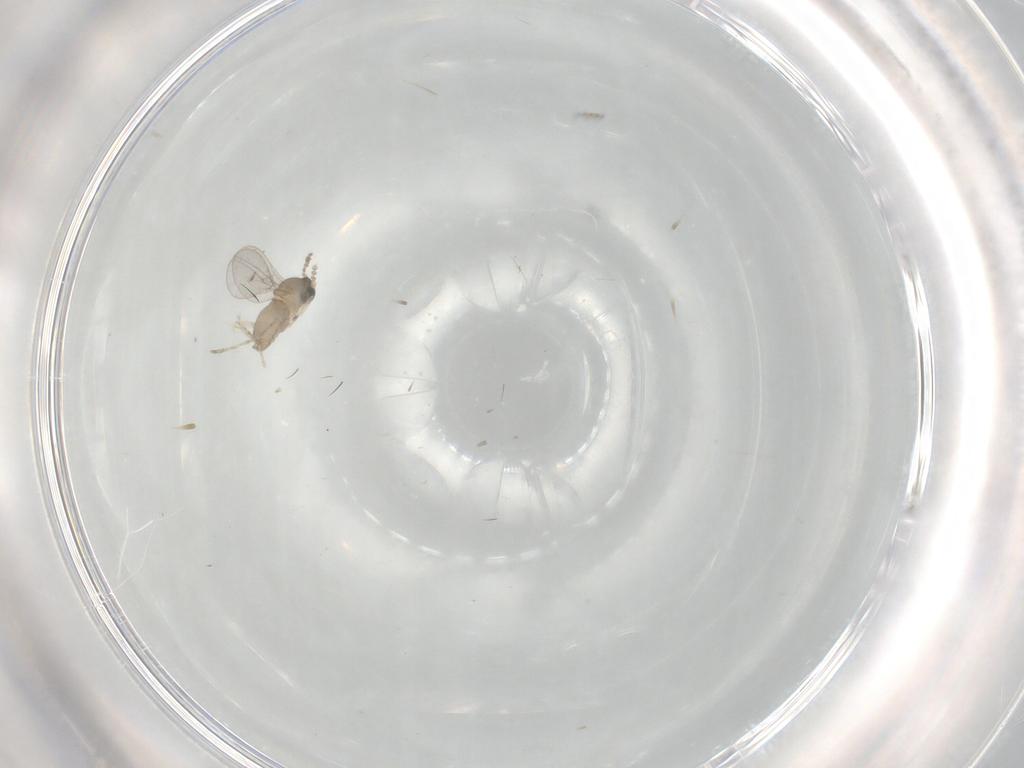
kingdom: Animalia
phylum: Arthropoda
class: Insecta
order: Diptera
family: Cecidomyiidae
